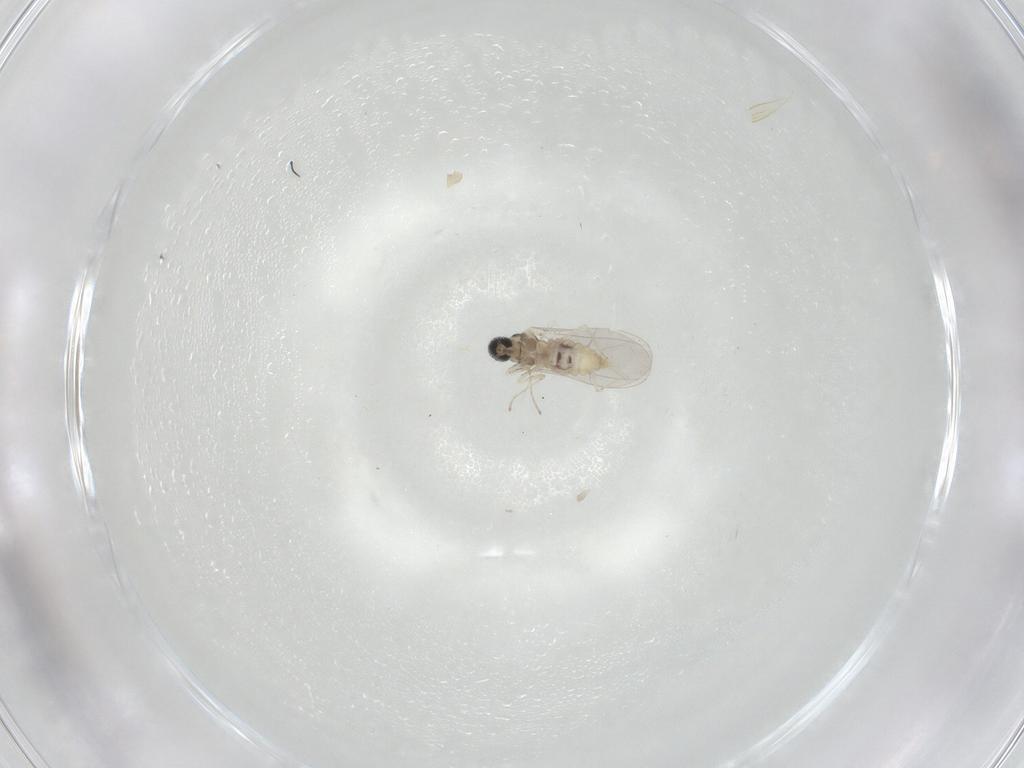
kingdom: Animalia
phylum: Arthropoda
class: Insecta
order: Diptera
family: Cecidomyiidae
